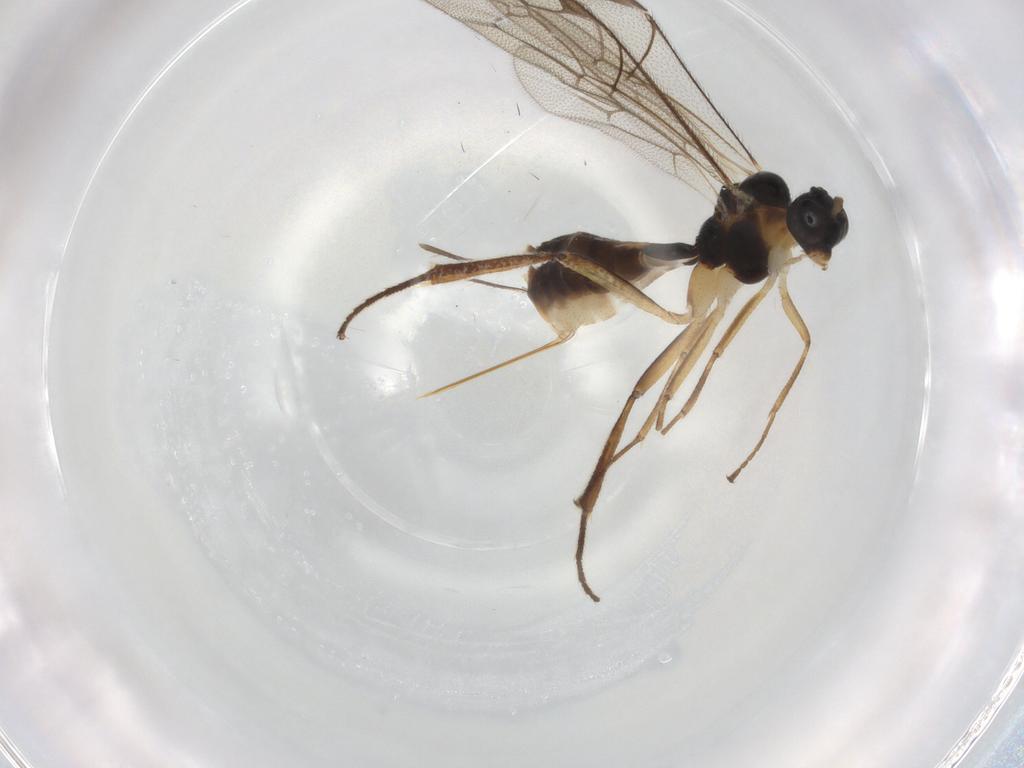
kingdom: Animalia
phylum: Arthropoda
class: Insecta
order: Hymenoptera
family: Ichneumonidae
